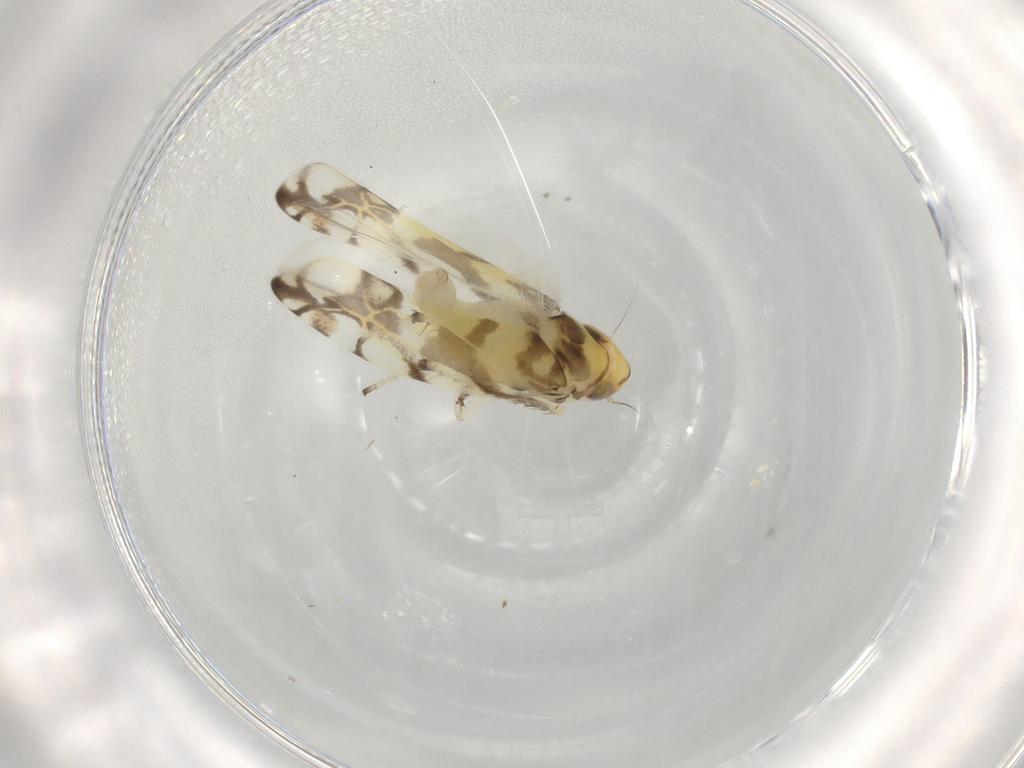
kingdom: Animalia
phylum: Arthropoda
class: Insecta
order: Hemiptera
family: Cicadellidae
